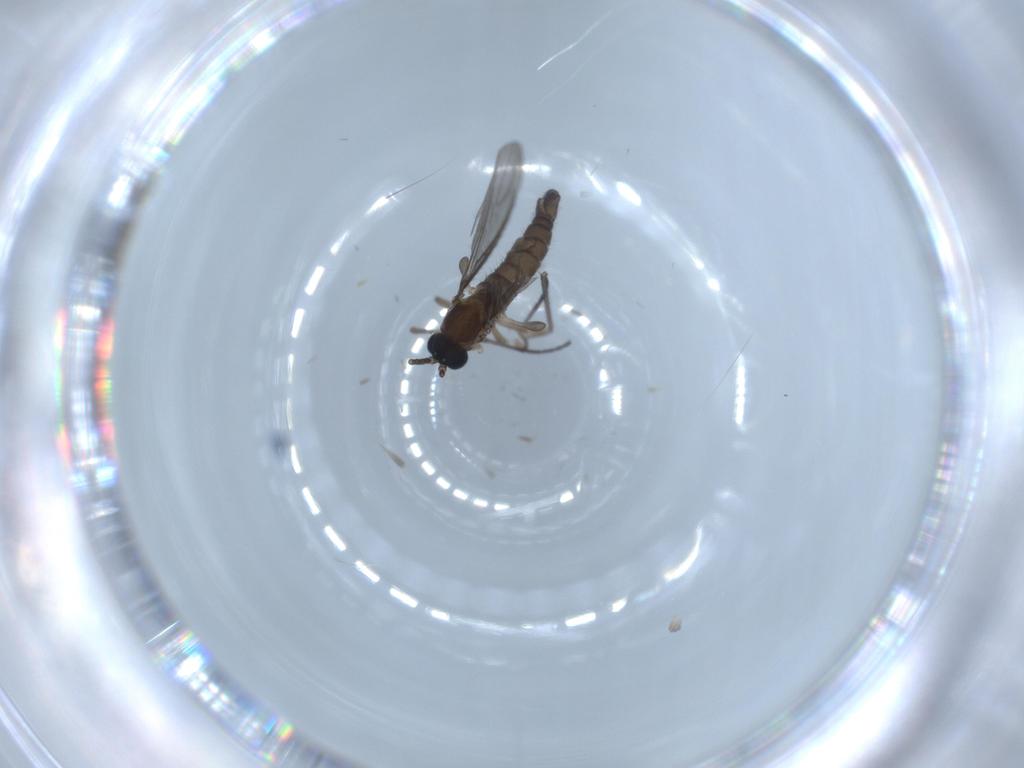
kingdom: Animalia
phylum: Arthropoda
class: Insecta
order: Diptera
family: Sciaridae
